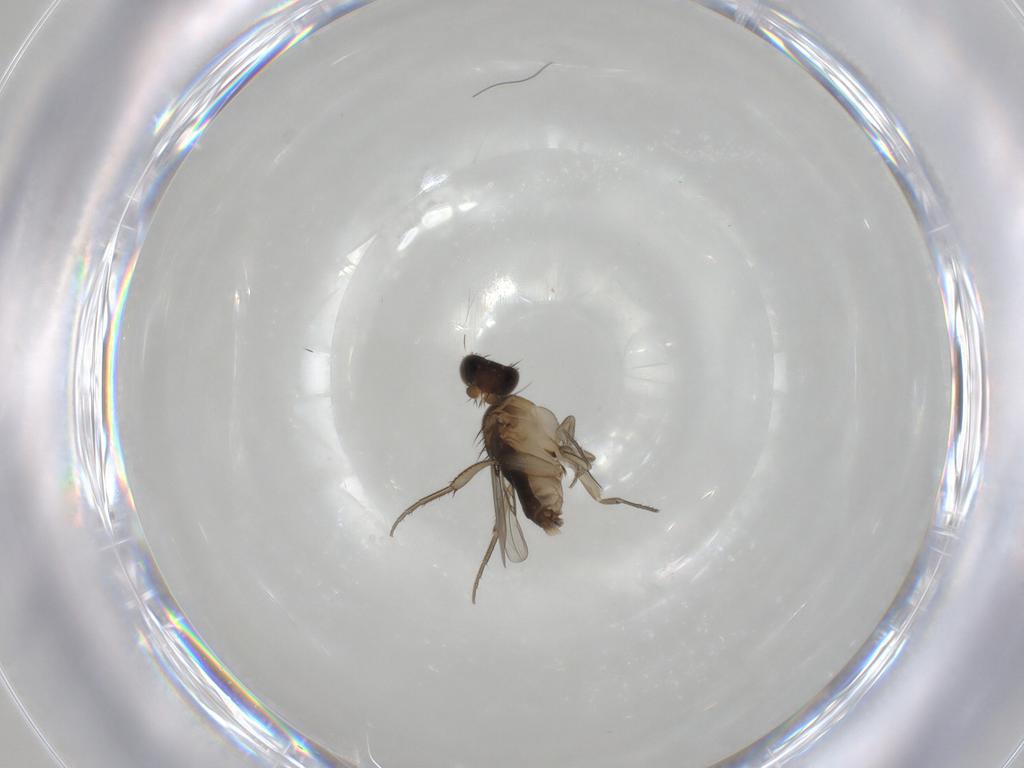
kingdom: Animalia
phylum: Arthropoda
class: Insecta
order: Diptera
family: Phoridae
